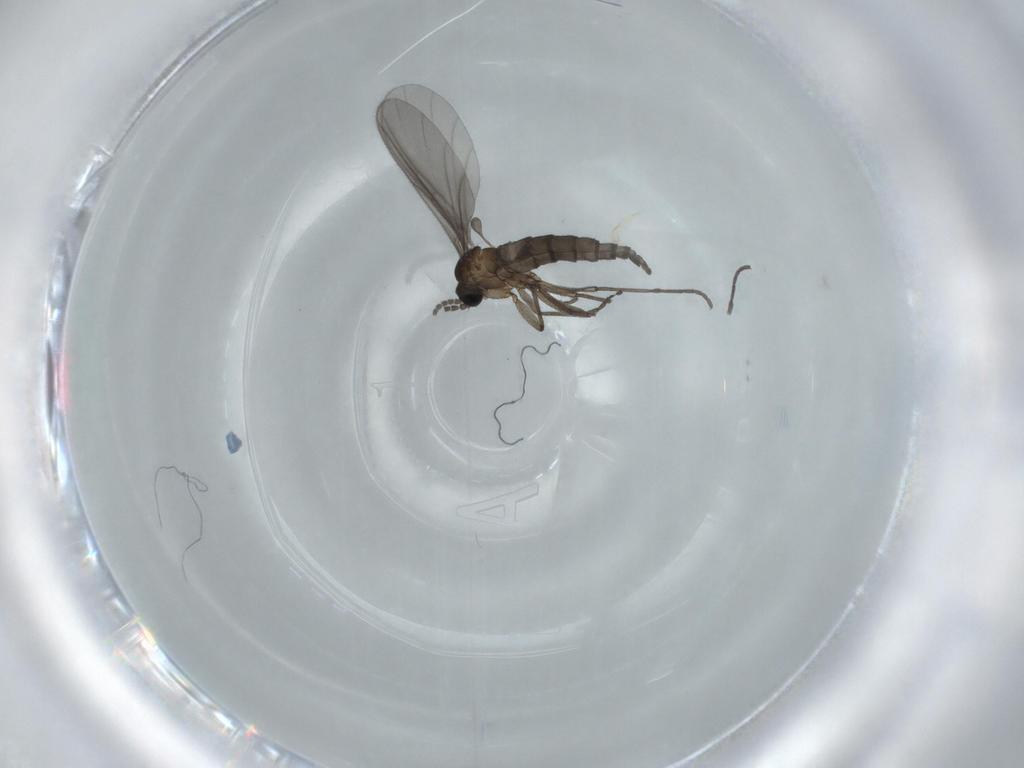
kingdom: Animalia
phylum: Arthropoda
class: Insecta
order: Diptera
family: Sciaridae
